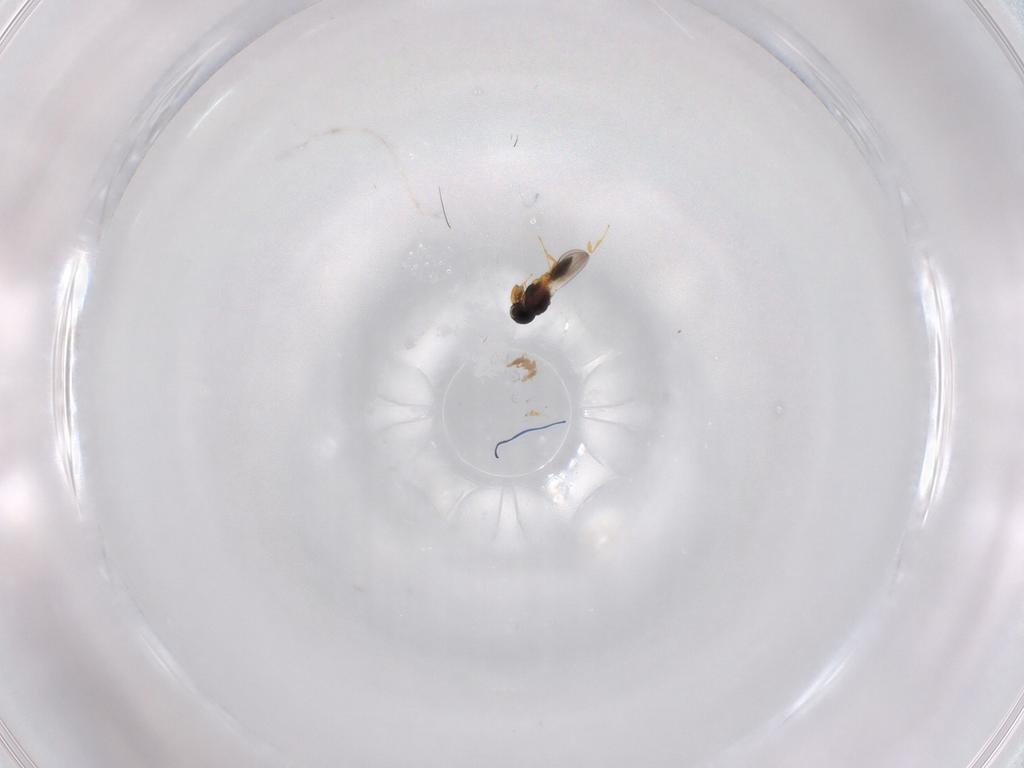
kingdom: Animalia
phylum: Arthropoda
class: Insecta
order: Hymenoptera
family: Platygastridae
